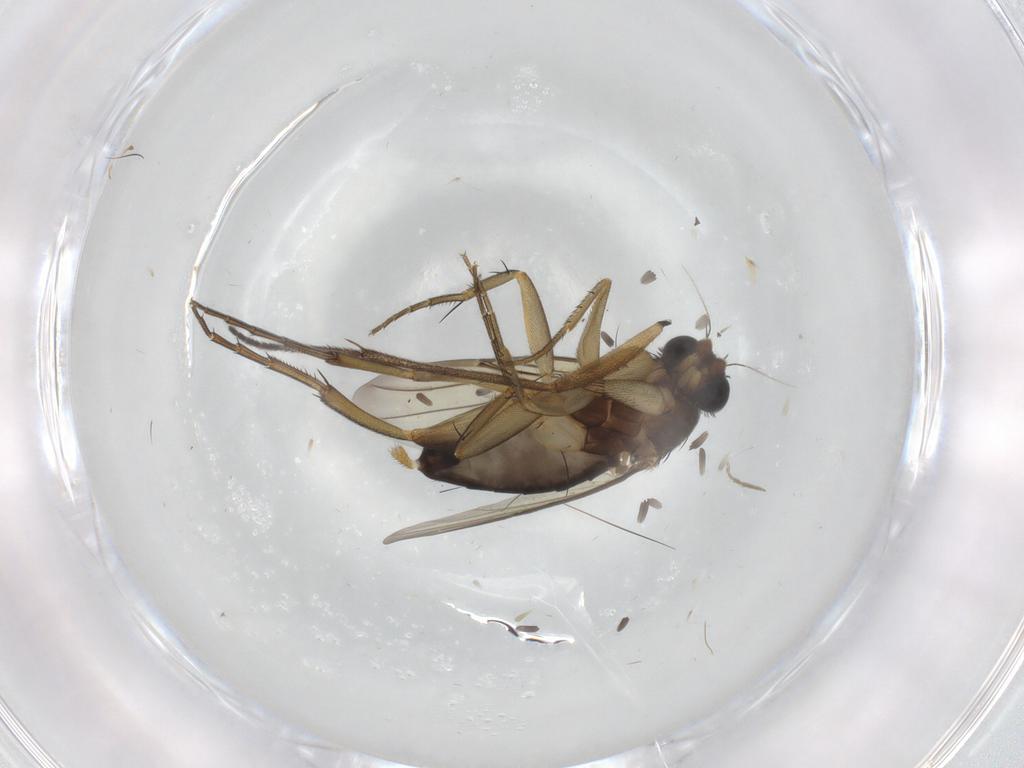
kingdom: Animalia
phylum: Arthropoda
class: Insecta
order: Diptera
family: Phoridae
